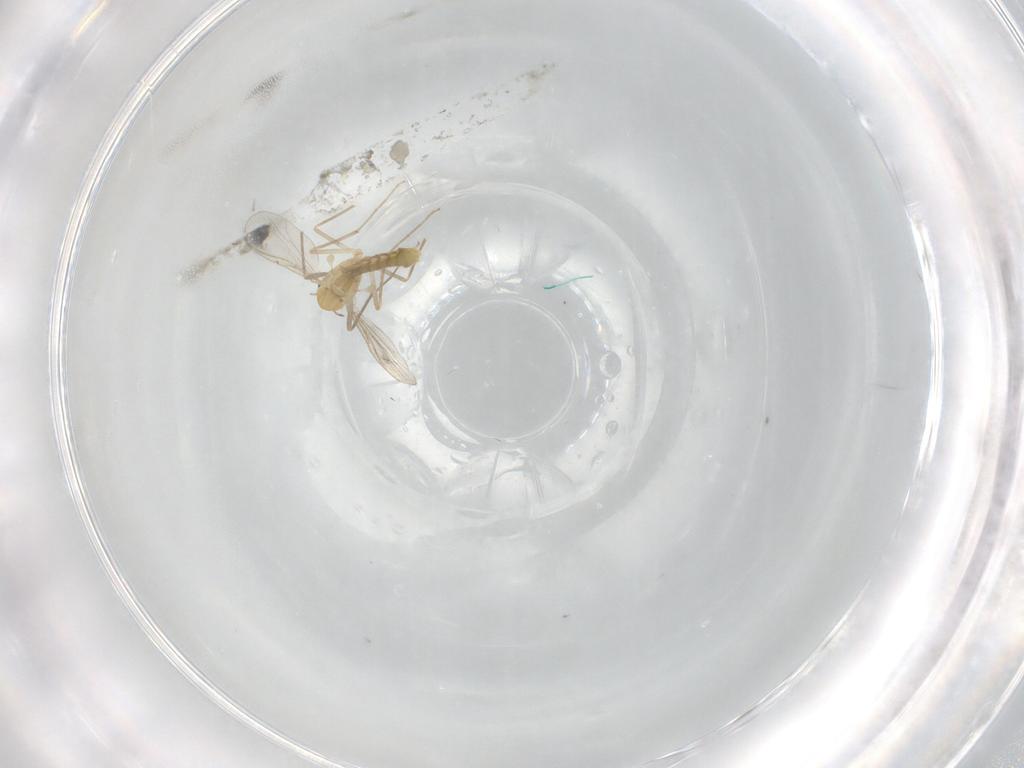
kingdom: Animalia
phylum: Arthropoda
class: Insecta
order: Diptera
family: Chironomidae
